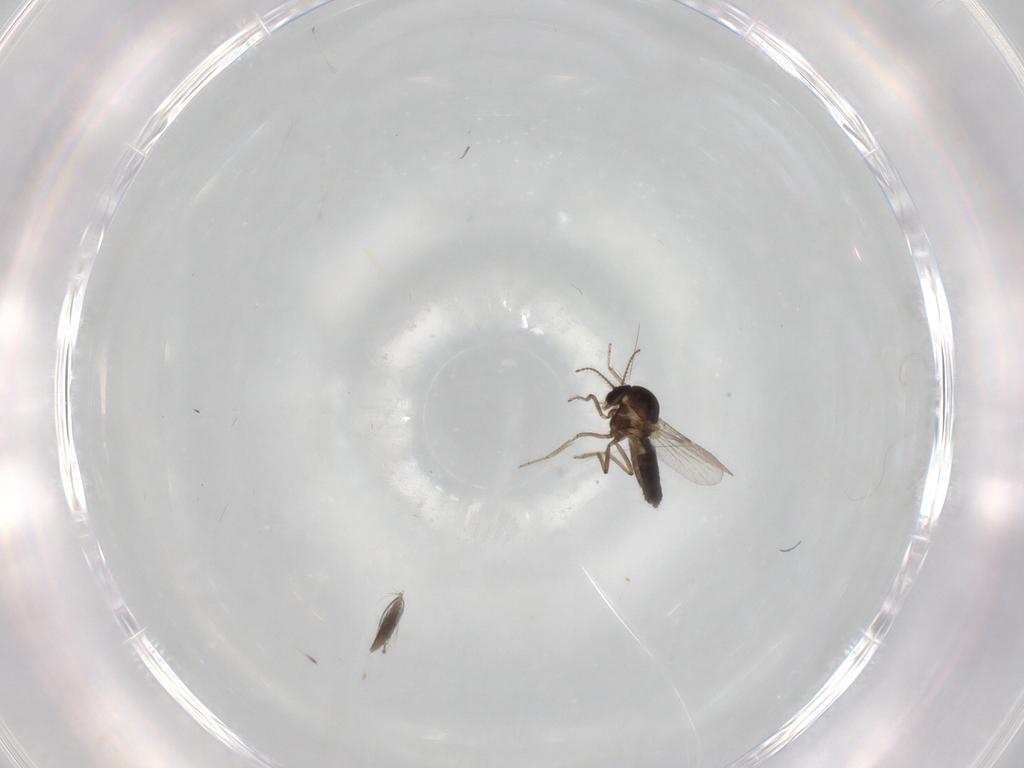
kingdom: Animalia
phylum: Arthropoda
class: Insecta
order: Diptera
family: Ceratopogonidae
